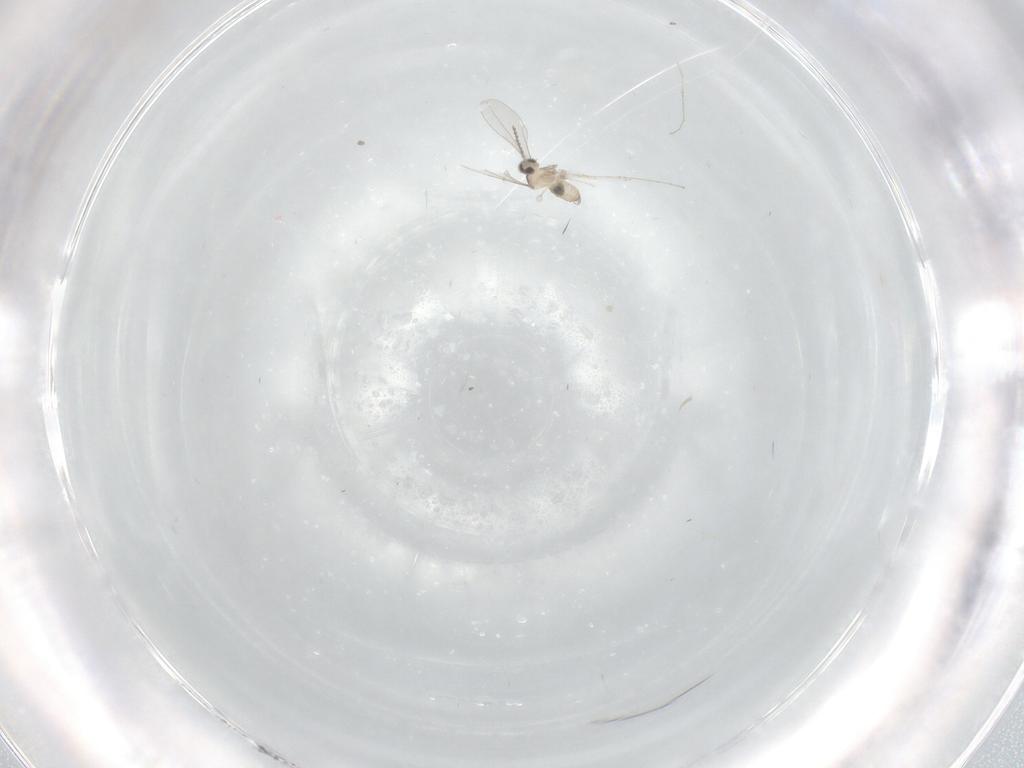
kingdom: Animalia
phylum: Arthropoda
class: Insecta
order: Diptera
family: Cecidomyiidae
